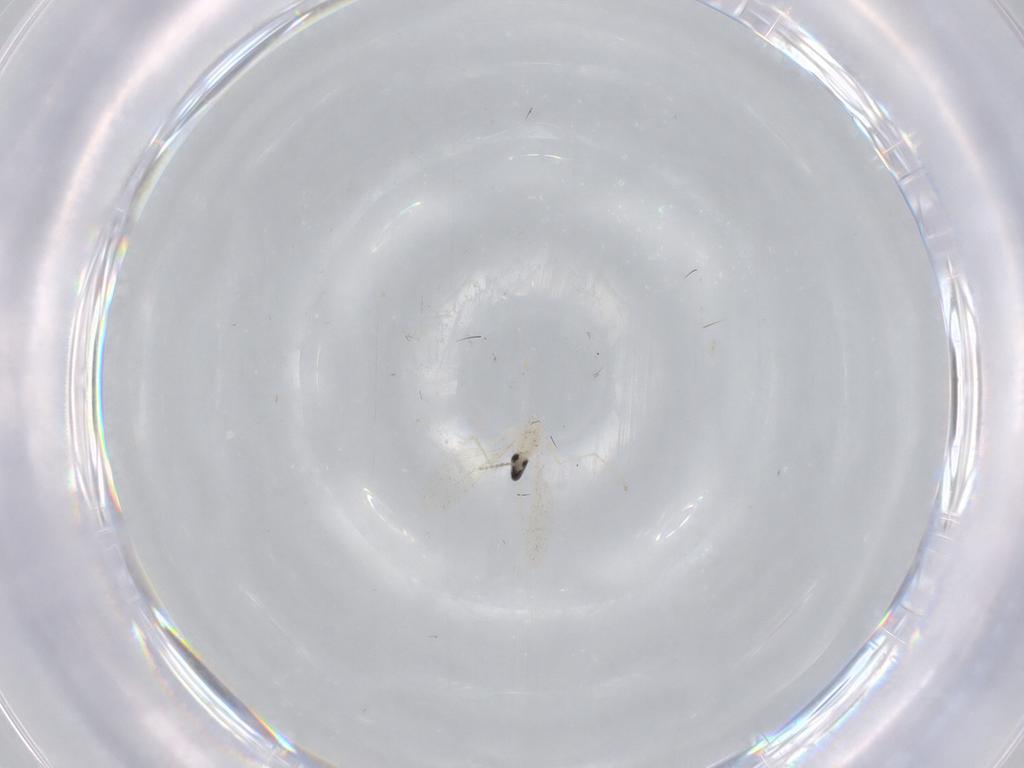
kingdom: Animalia
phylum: Arthropoda
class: Insecta
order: Diptera
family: Cecidomyiidae
